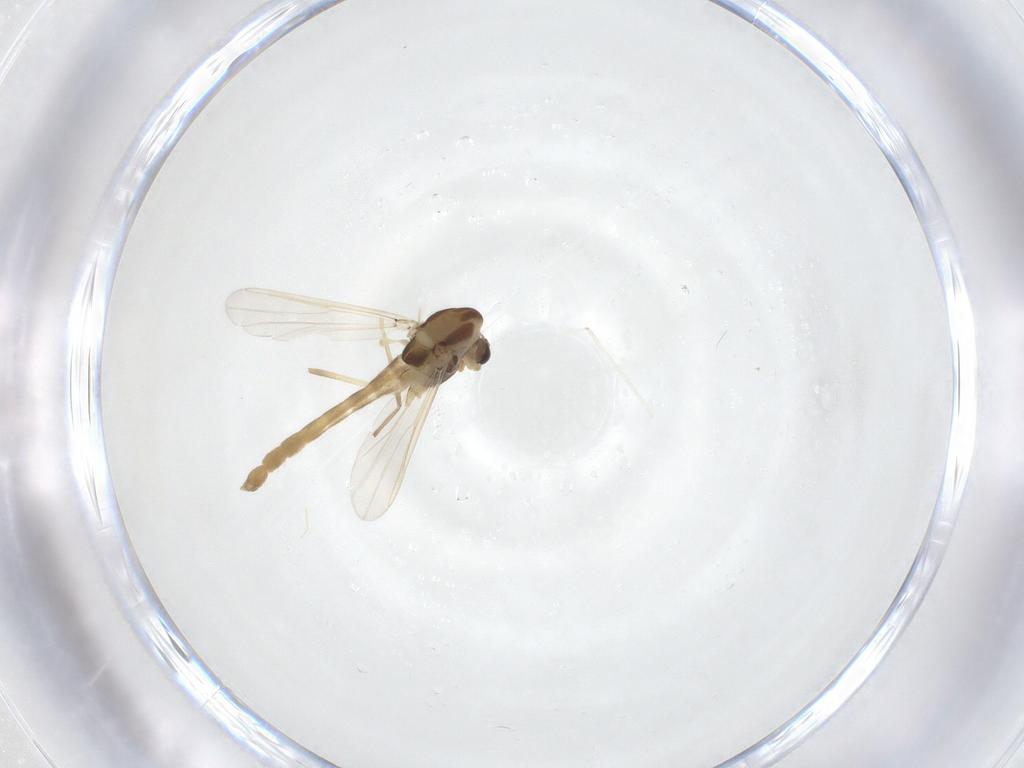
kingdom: Animalia
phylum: Arthropoda
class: Insecta
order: Diptera
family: Chironomidae
